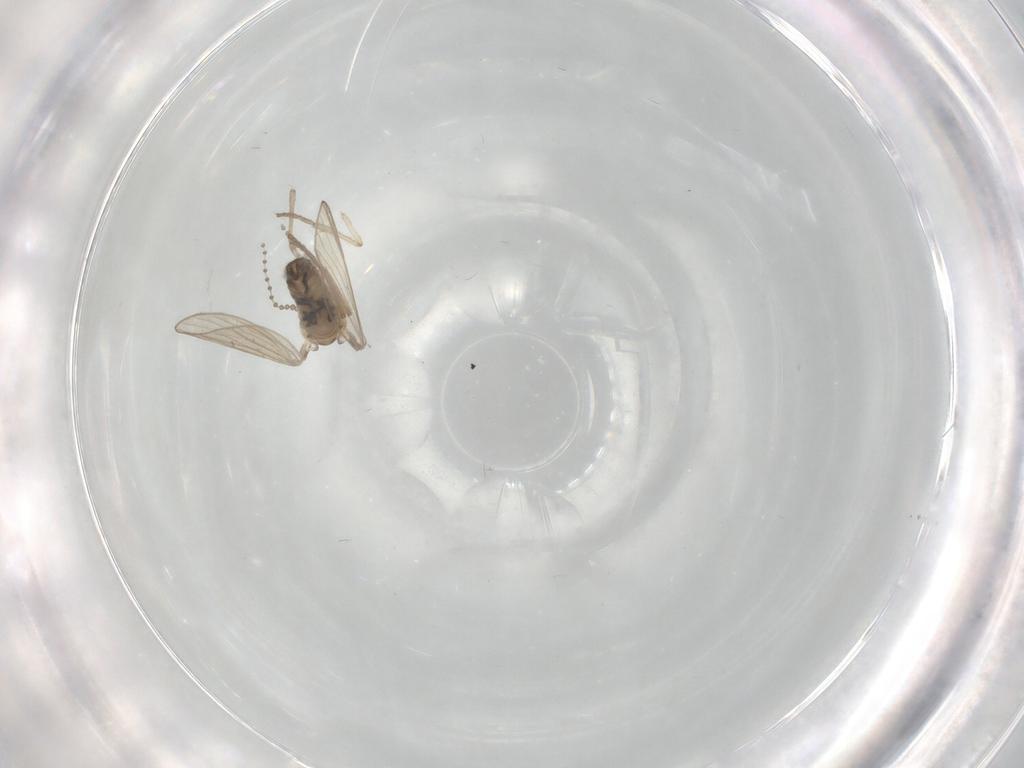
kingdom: Animalia
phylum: Arthropoda
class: Insecta
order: Diptera
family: Psychodidae
